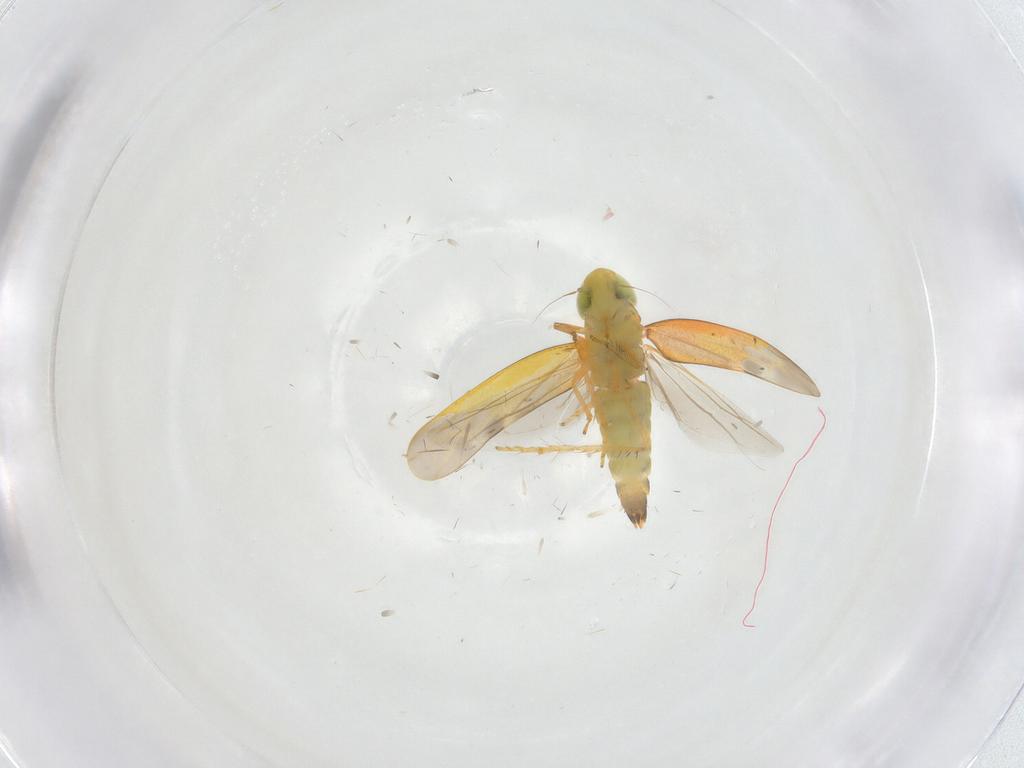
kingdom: Animalia
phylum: Arthropoda
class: Insecta
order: Hemiptera
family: Cicadellidae
